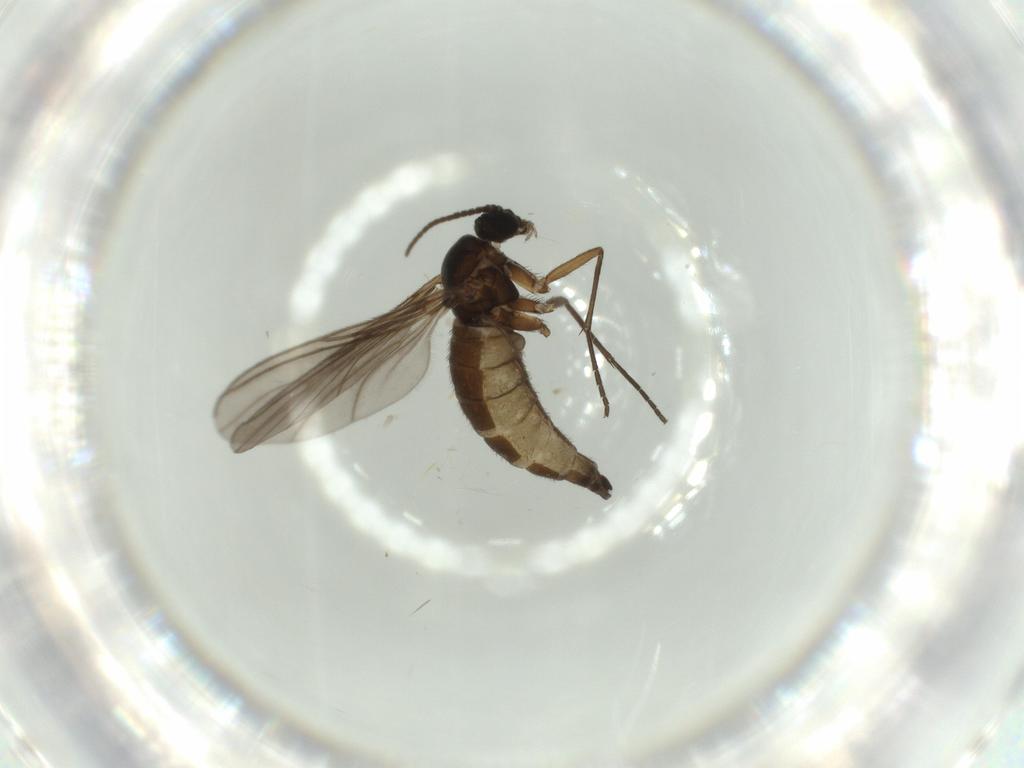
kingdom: Animalia
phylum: Arthropoda
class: Insecta
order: Diptera
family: Sciaridae
